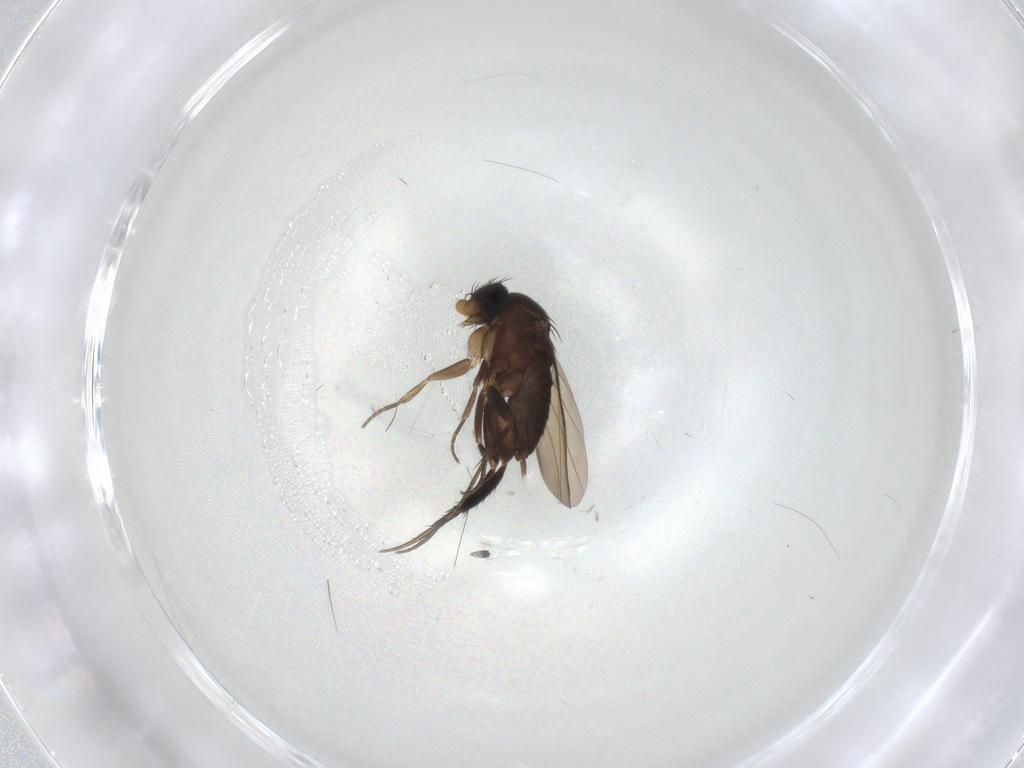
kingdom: Animalia
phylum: Arthropoda
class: Insecta
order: Diptera
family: Phoridae
